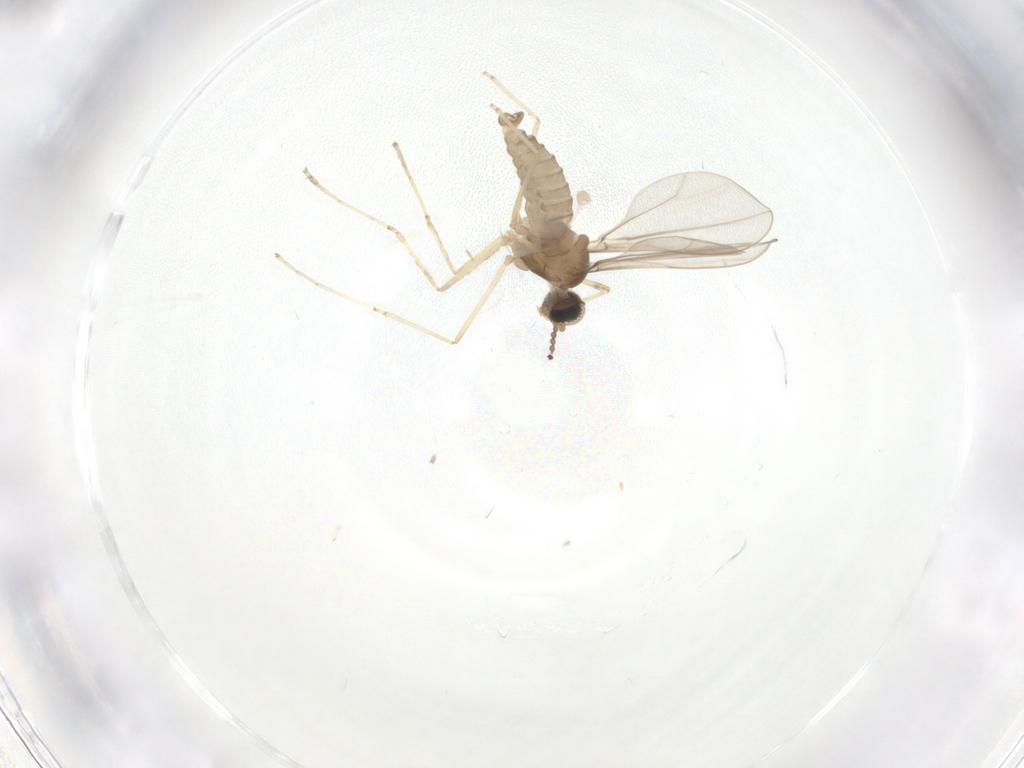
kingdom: Animalia
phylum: Arthropoda
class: Insecta
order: Diptera
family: Cecidomyiidae
